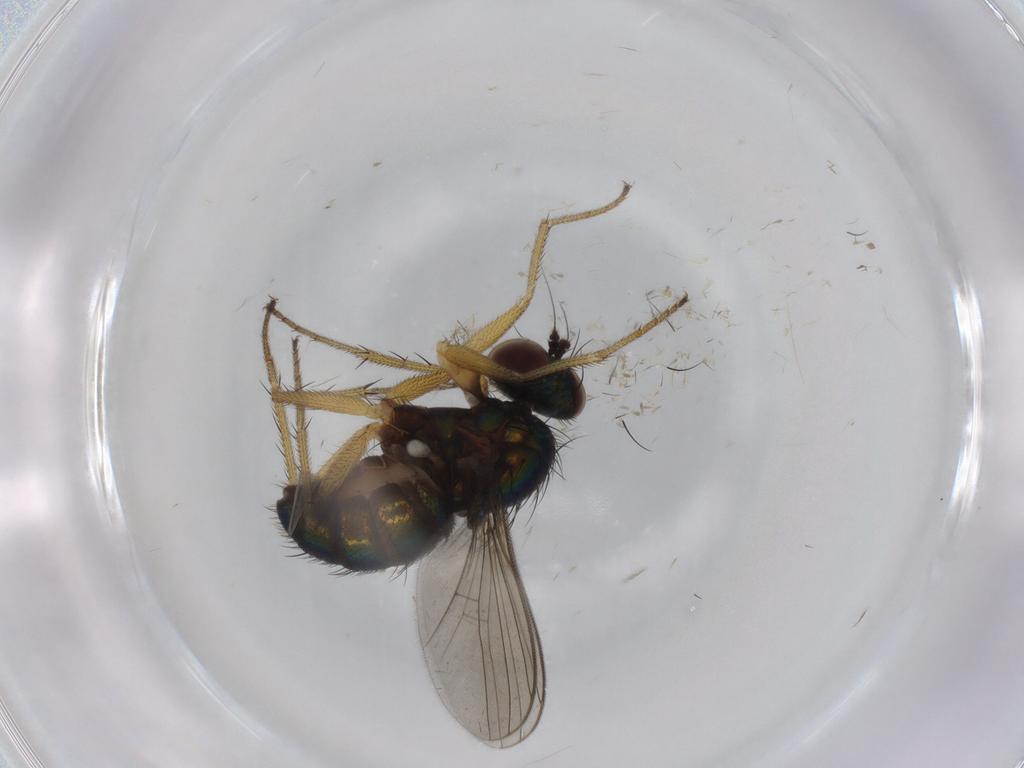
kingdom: Animalia
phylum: Arthropoda
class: Insecta
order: Diptera
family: Dolichopodidae
